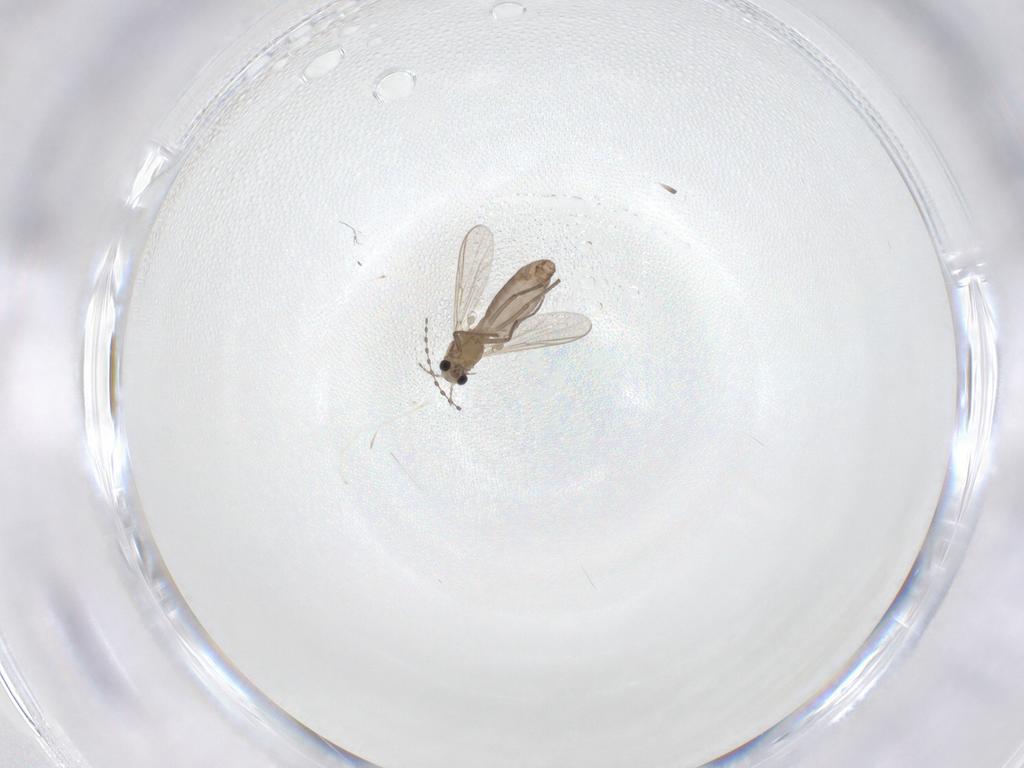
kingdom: Animalia
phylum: Arthropoda
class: Insecta
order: Diptera
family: Chironomidae
